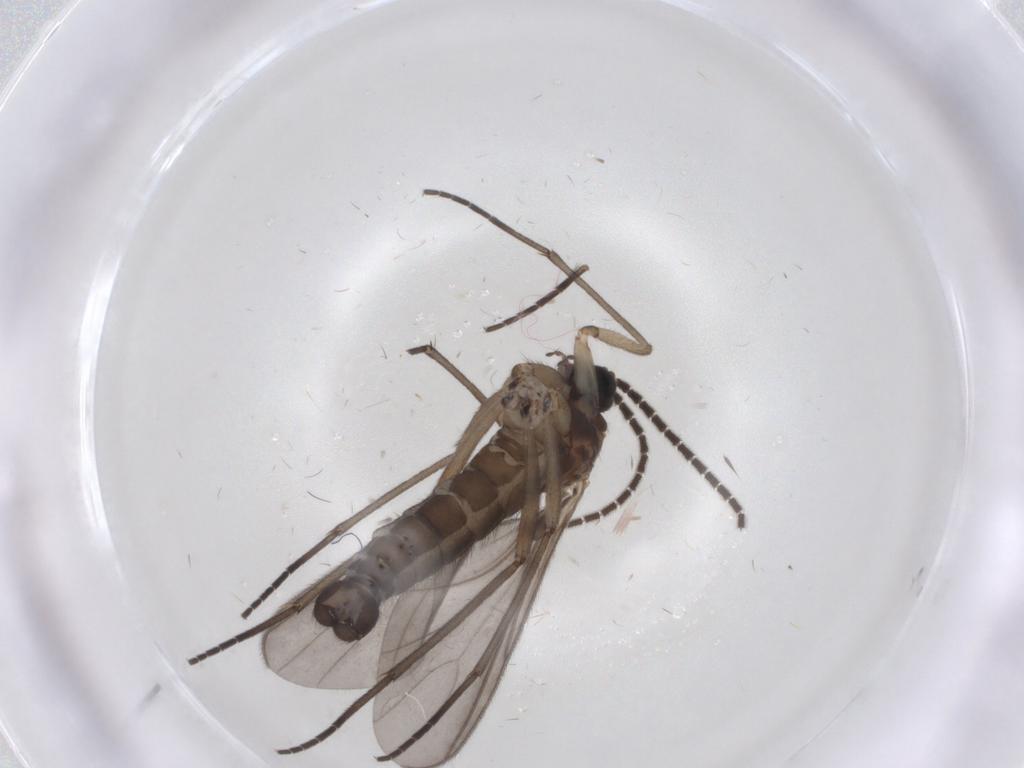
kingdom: Animalia
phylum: Arthropoda
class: Insecta
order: Diptera
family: Sciaridae
